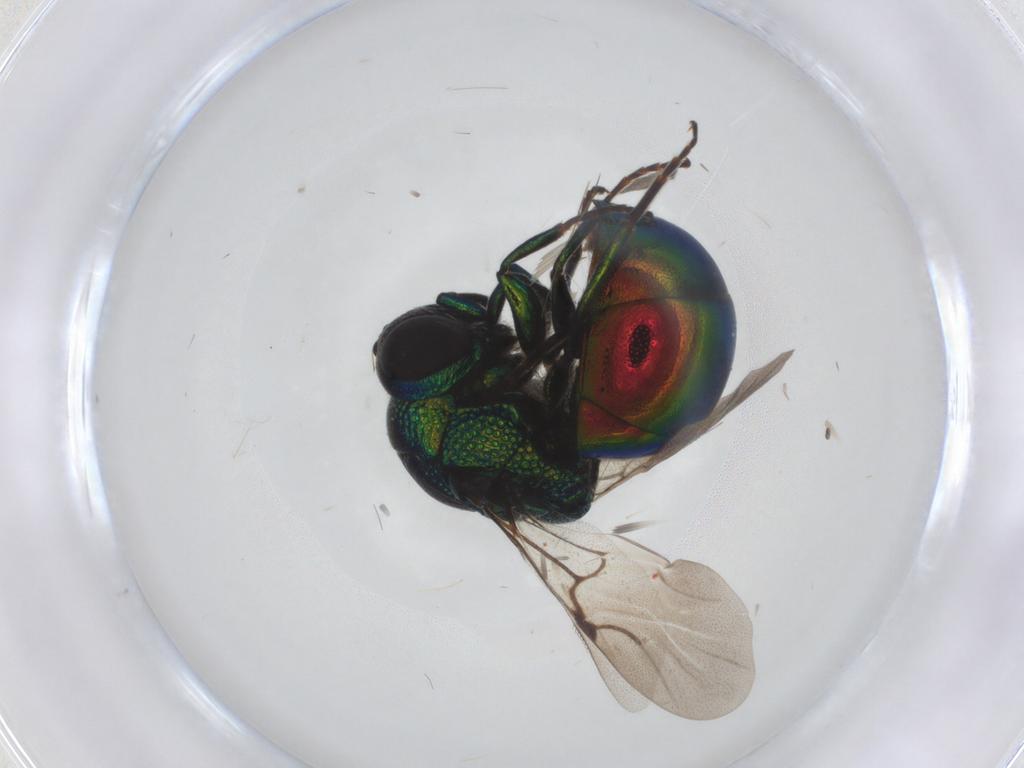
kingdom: Animalia
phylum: Arthropoda
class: Insecta
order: Hymenoptera
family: Chrysididae
